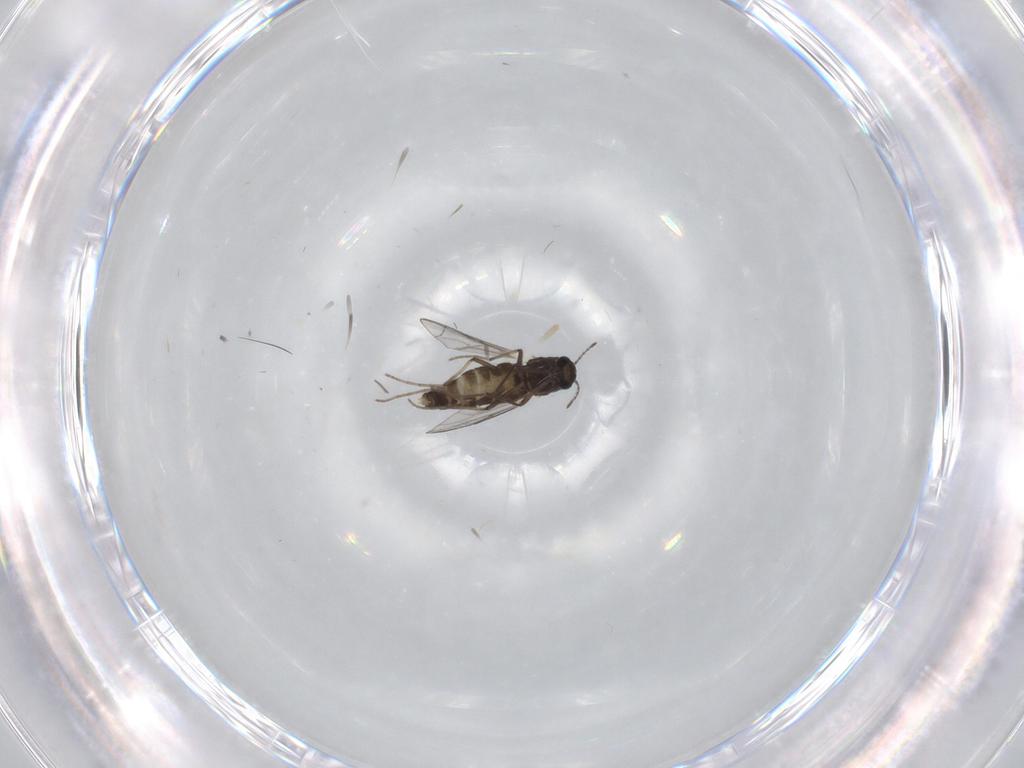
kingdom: Animalia
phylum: Arthropoda
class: Insecta
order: Diptera
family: Chironomidae
